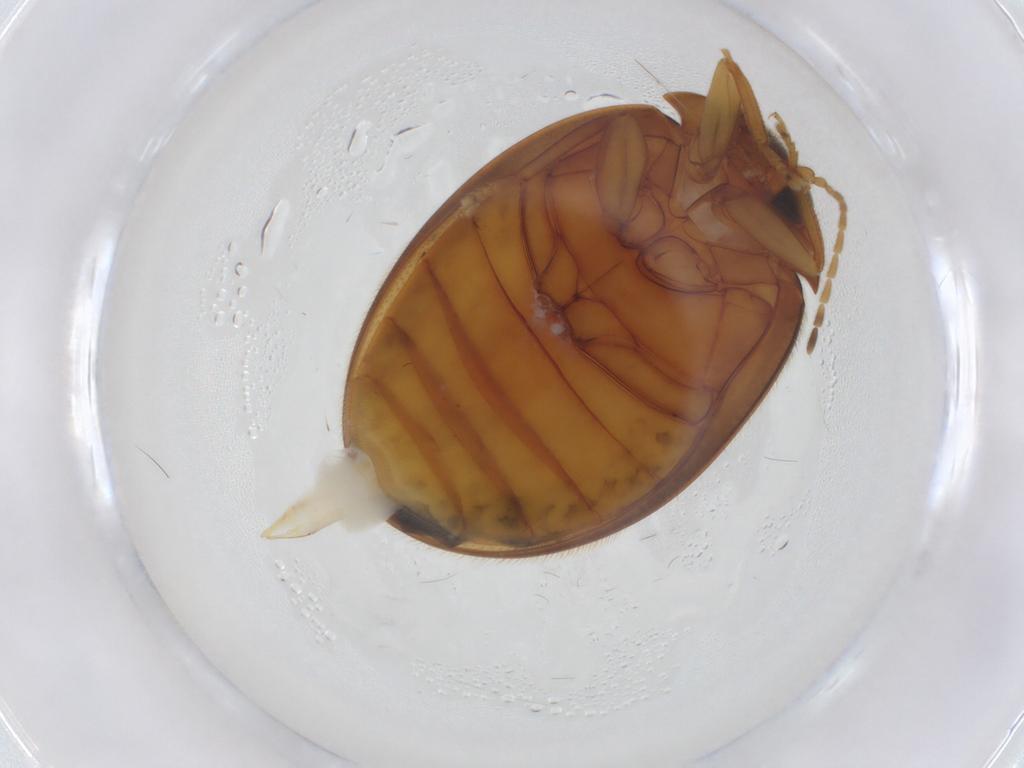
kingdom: Animalia
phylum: Arthropoda
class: Insecta
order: Coleoptera
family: Scirtidae
